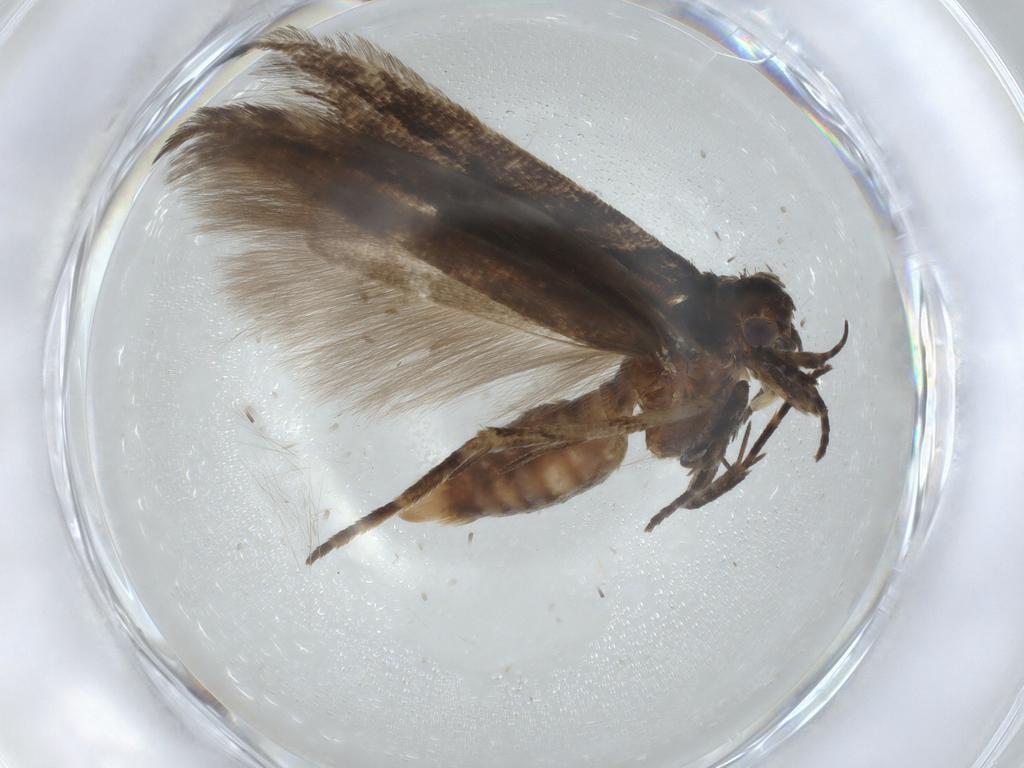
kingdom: Animalia
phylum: Arthropoda
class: Insecta
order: Lepidoptera
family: Gelechiidae
